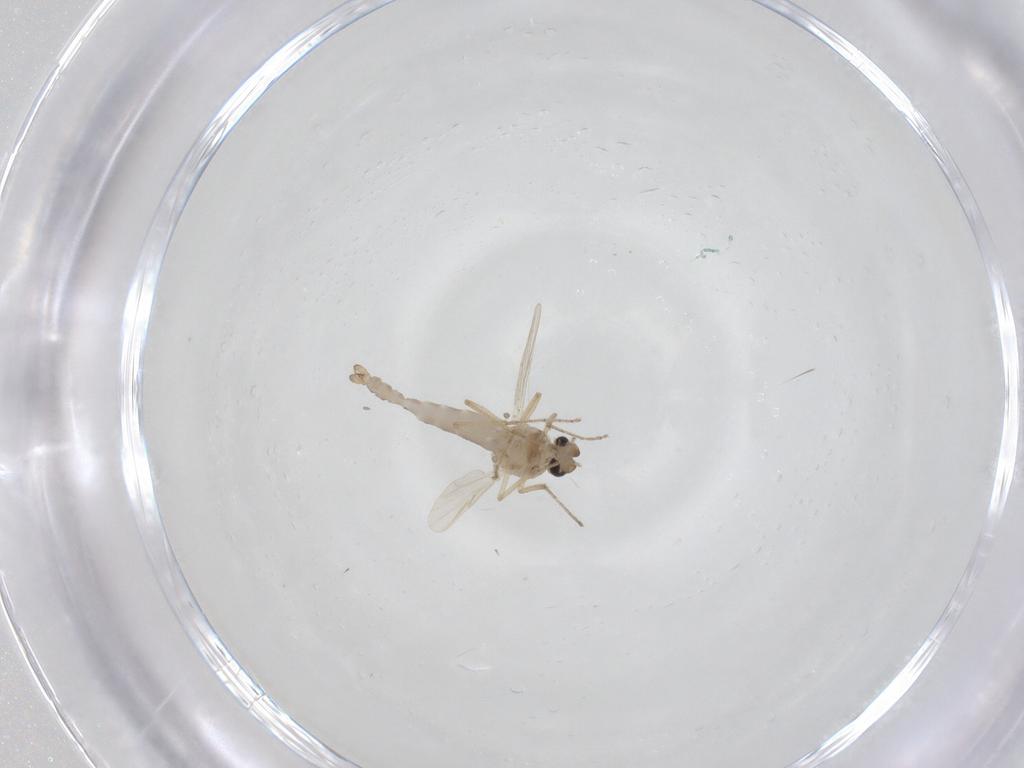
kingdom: Animalia
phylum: Arthropoda
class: Insecta
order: Diptera
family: Ceratopogonidae
